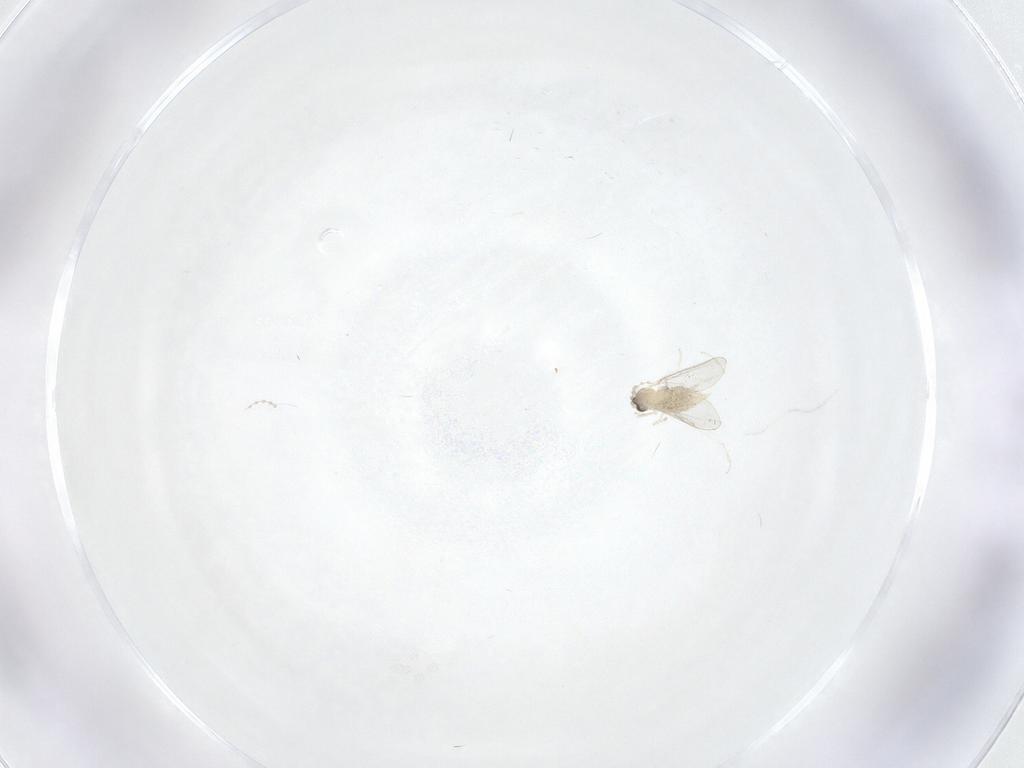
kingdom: Animalia
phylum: Arthropoda
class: Insecta
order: Diptera
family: Cecidomyiidae
